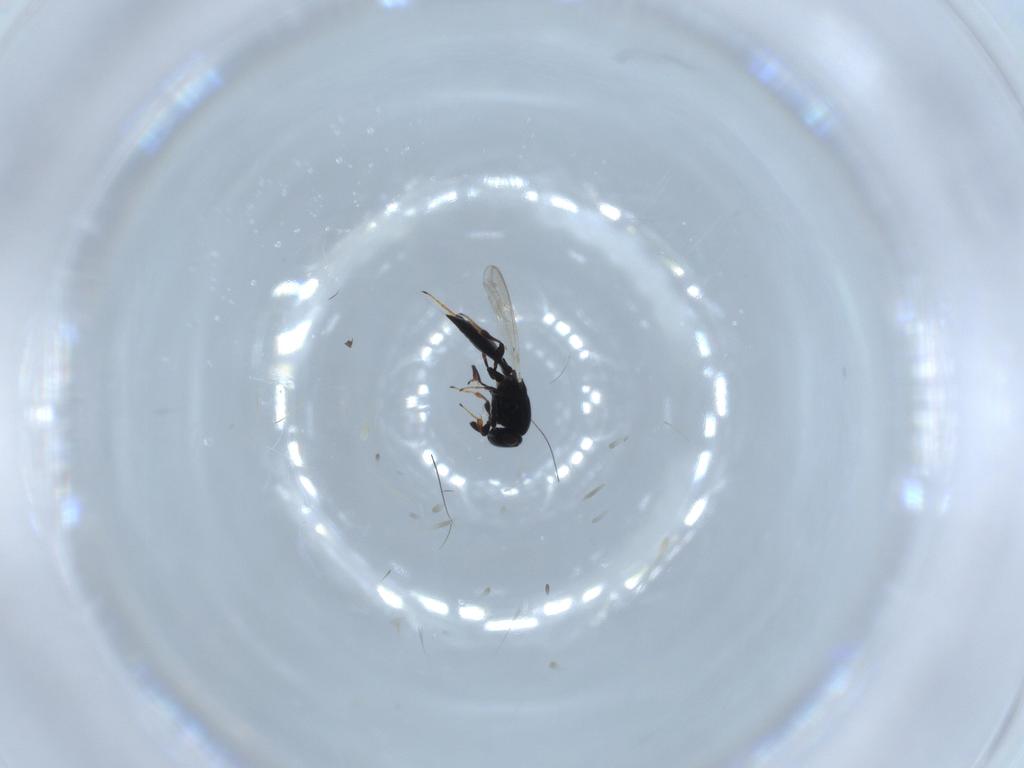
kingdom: Animalia
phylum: Arthropoda
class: Insecta
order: Hymenoptera
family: Platygastridae
